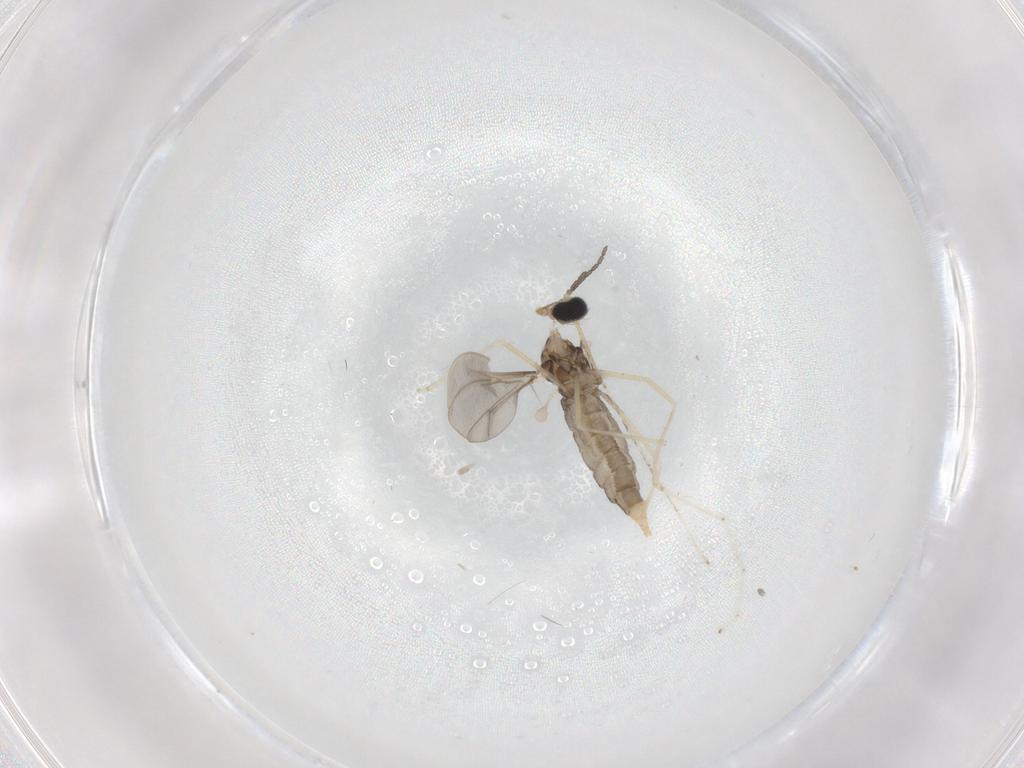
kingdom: Animalia
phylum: Arthropoda
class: Insecta
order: Diptera
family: Cecidomyiidae
